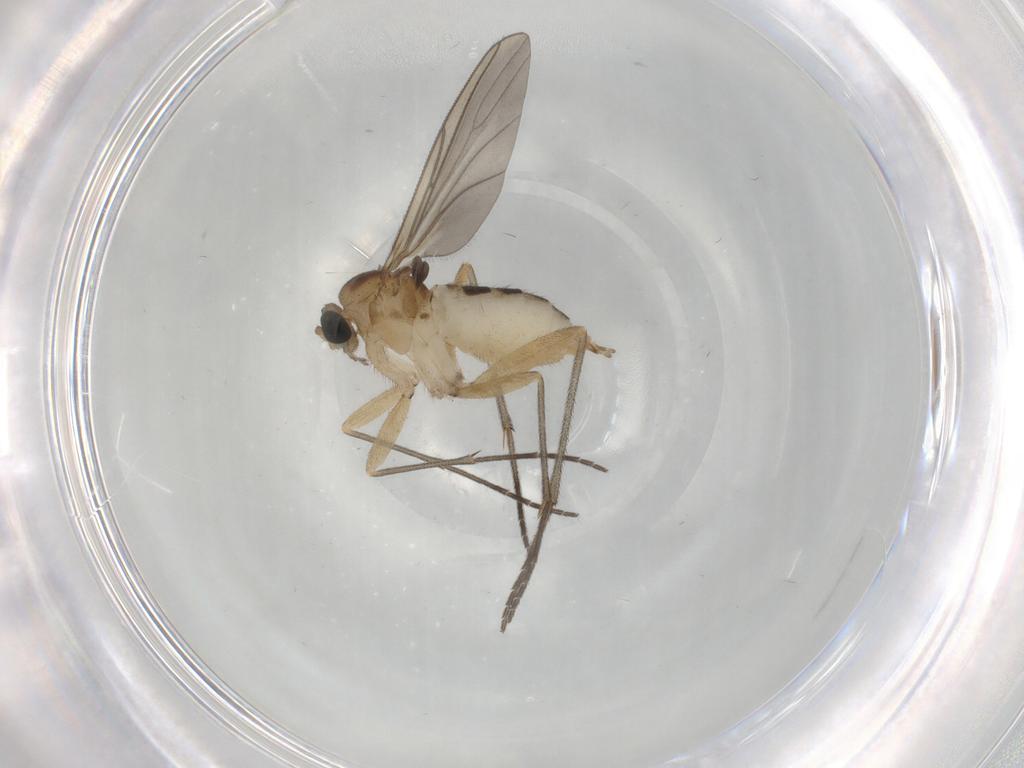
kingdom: Animalia
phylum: Arthropoda
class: Insecta
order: Diptera
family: Sciaridae
